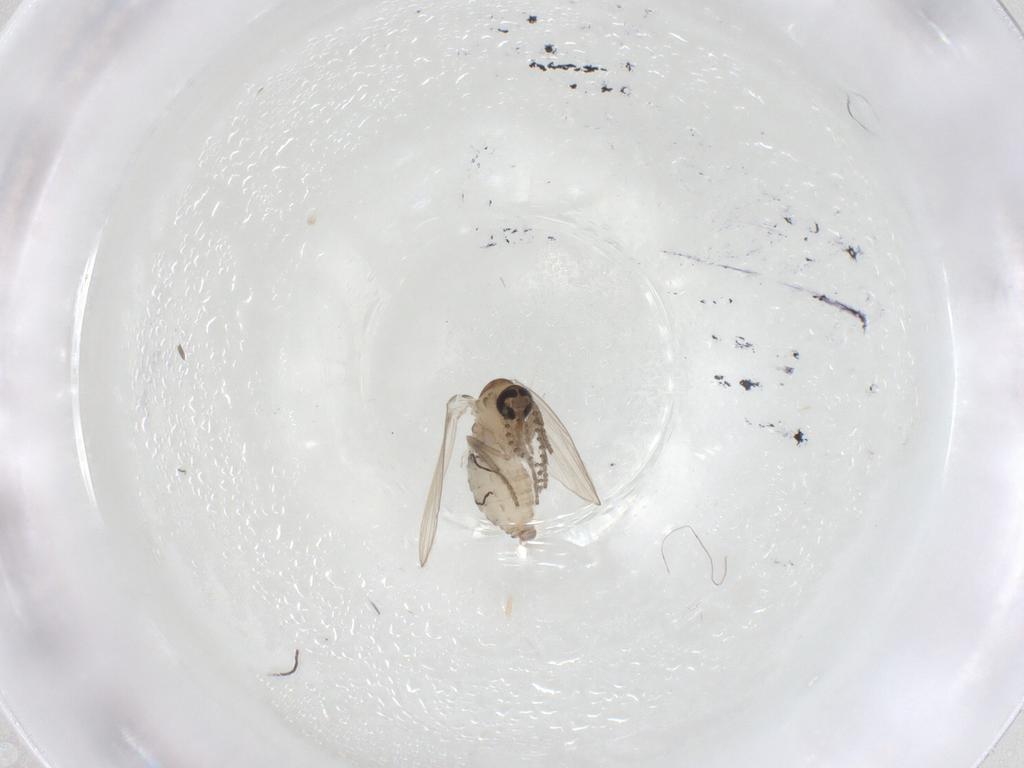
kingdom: Animalia
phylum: Arthropoda
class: Insecta
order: Diptera
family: Psychodidae
